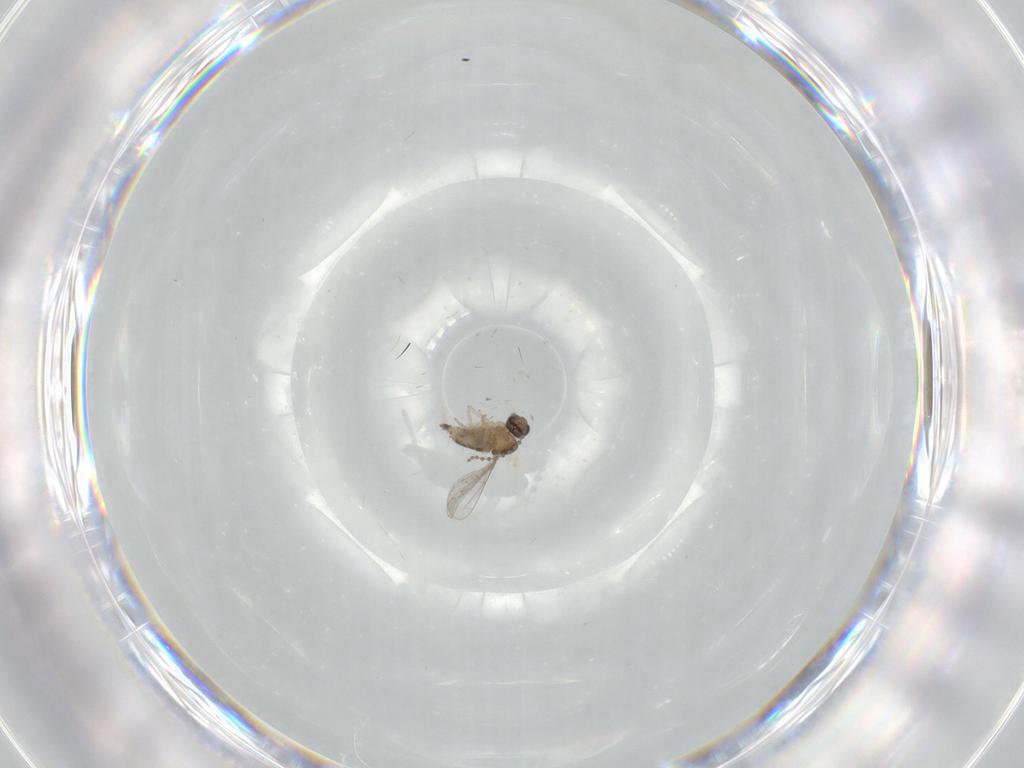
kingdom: Animalia
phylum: Arthropoda
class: Insecta
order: Diptera
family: Cecidomyiidae
